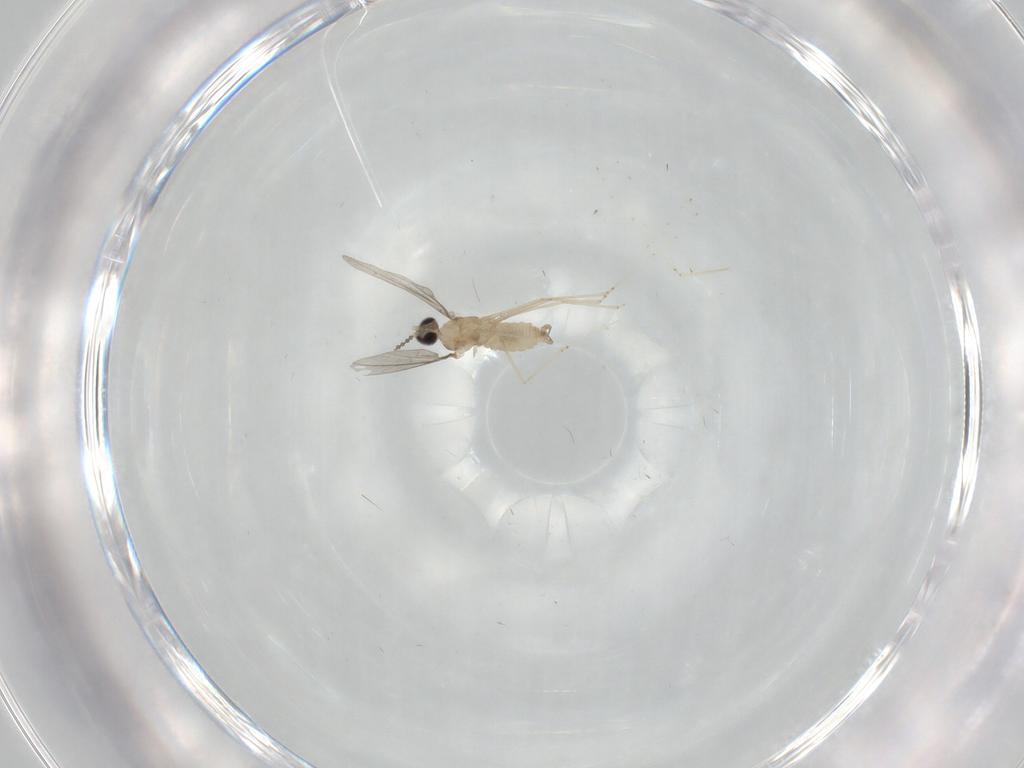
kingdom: Animalia
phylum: Arthropoda
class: Insecta
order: Diptera
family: Cecidomyiidae
